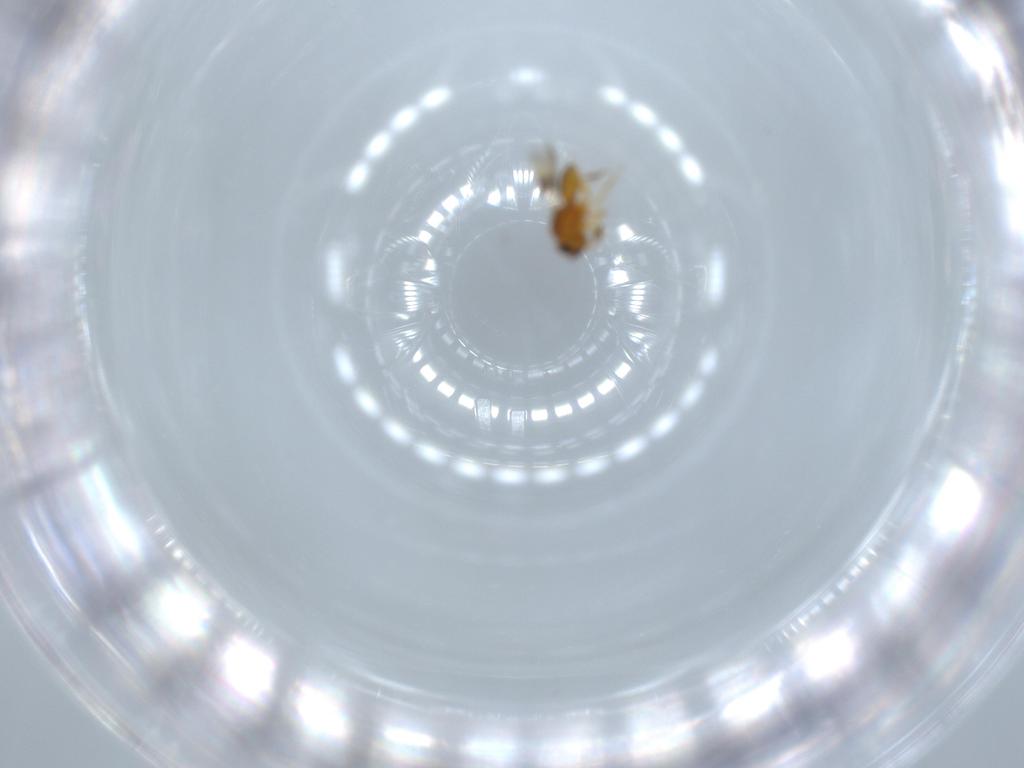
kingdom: Animalia
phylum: Arthropoda
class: Insecta
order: Hymenoptera
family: Scelionidae
